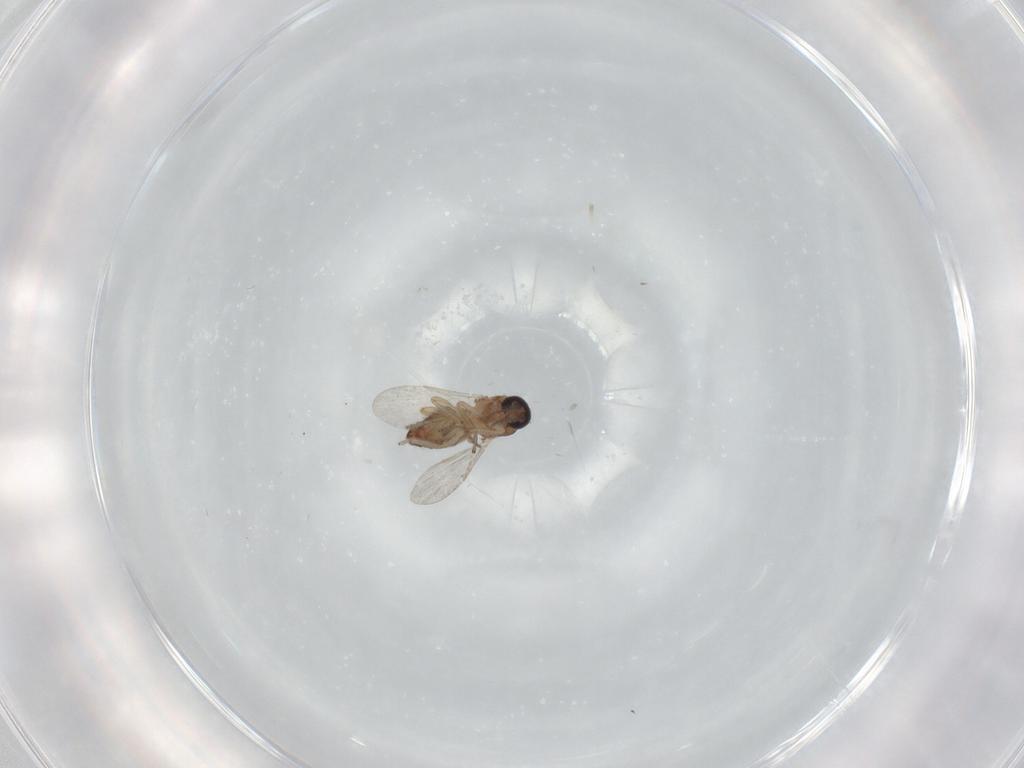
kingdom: Animalia
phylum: Arthropoda
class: Insecta
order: Diptera
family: Ceratopogonidae
